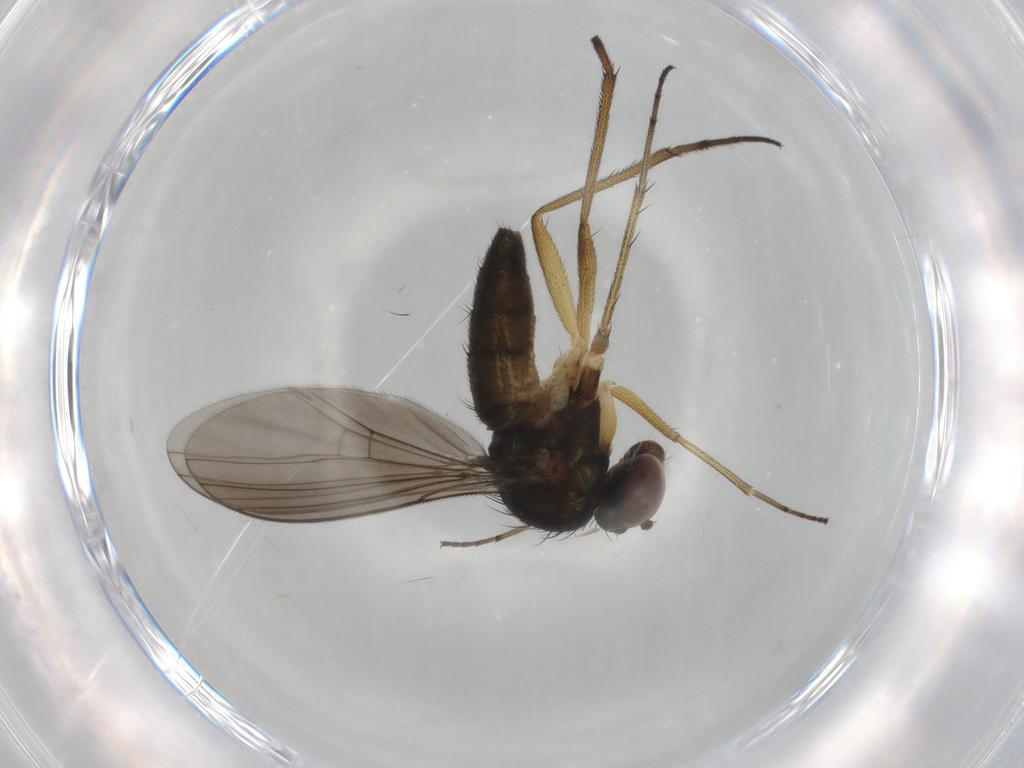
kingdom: Animalia
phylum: Arthropoda
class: Insecta
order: Diptera
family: Dolichopodidae
